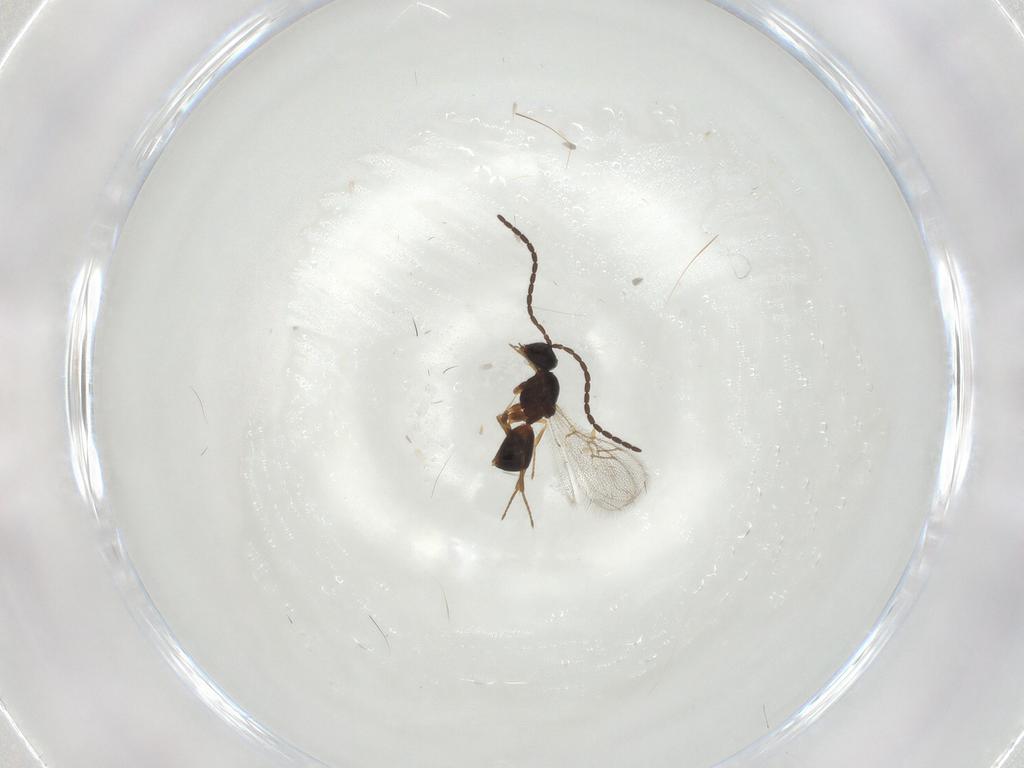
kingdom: Animalia
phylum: Arthropoda
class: Insecta
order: Hymenoptera
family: Figitidae
